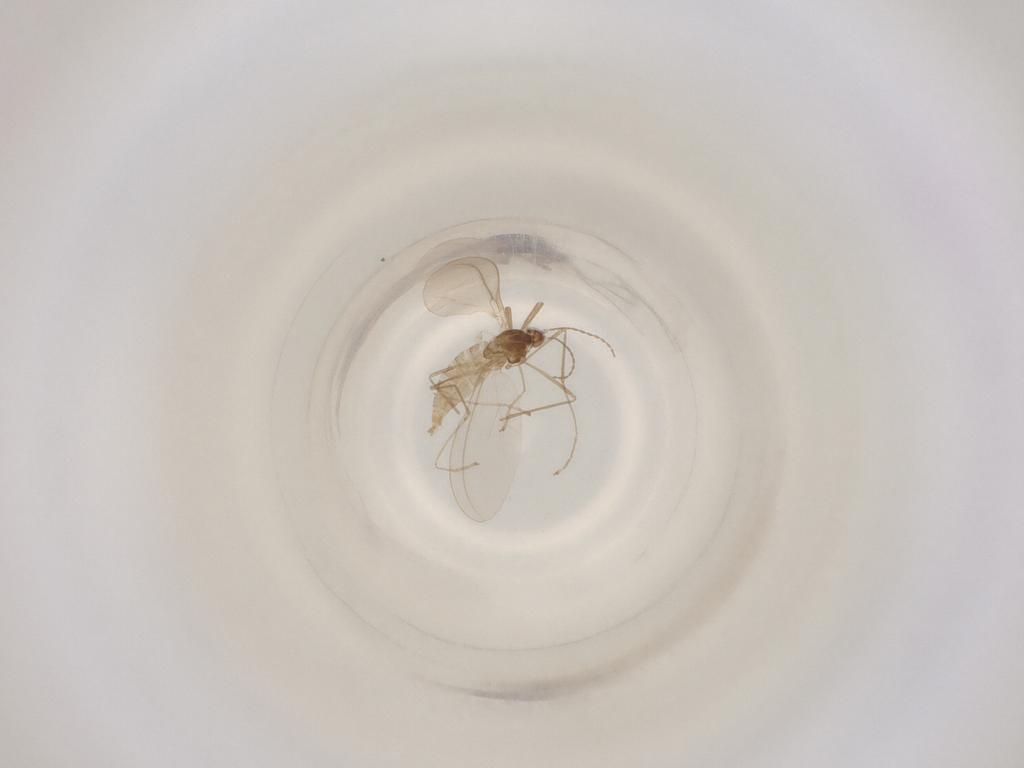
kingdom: Animalia
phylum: Arthropoda
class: Insecta
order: Diptera
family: Cecidomyiidae
